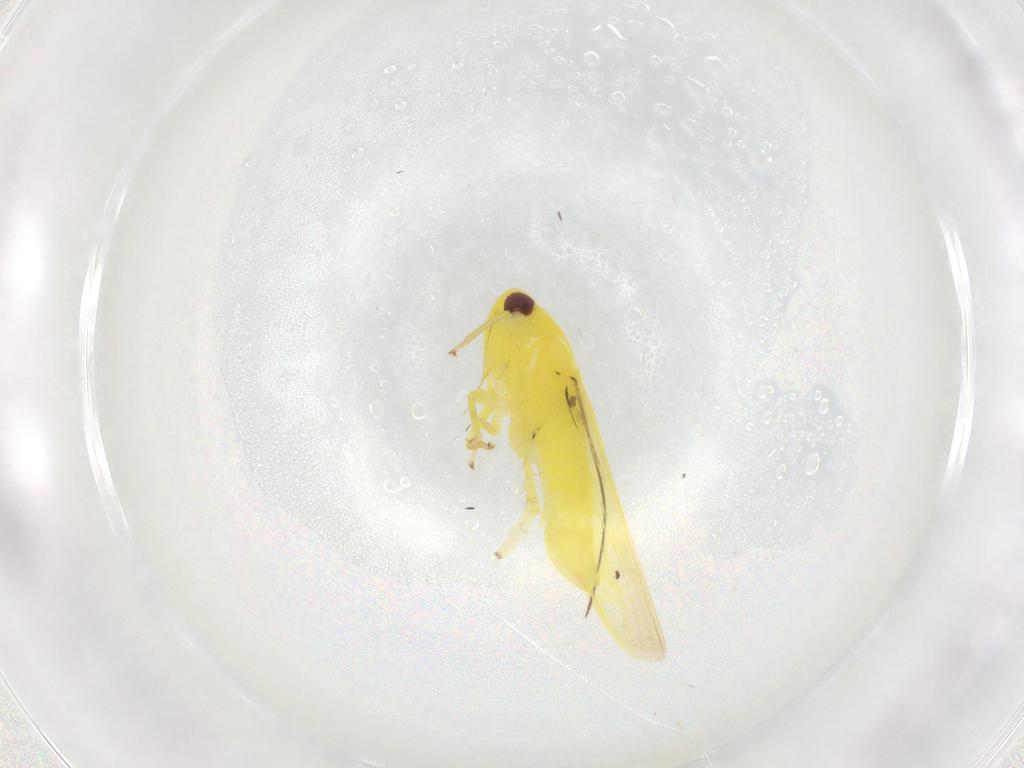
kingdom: Animalia
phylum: Arthropoda
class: Insecta
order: Hemiptera
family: Cicadellidae
